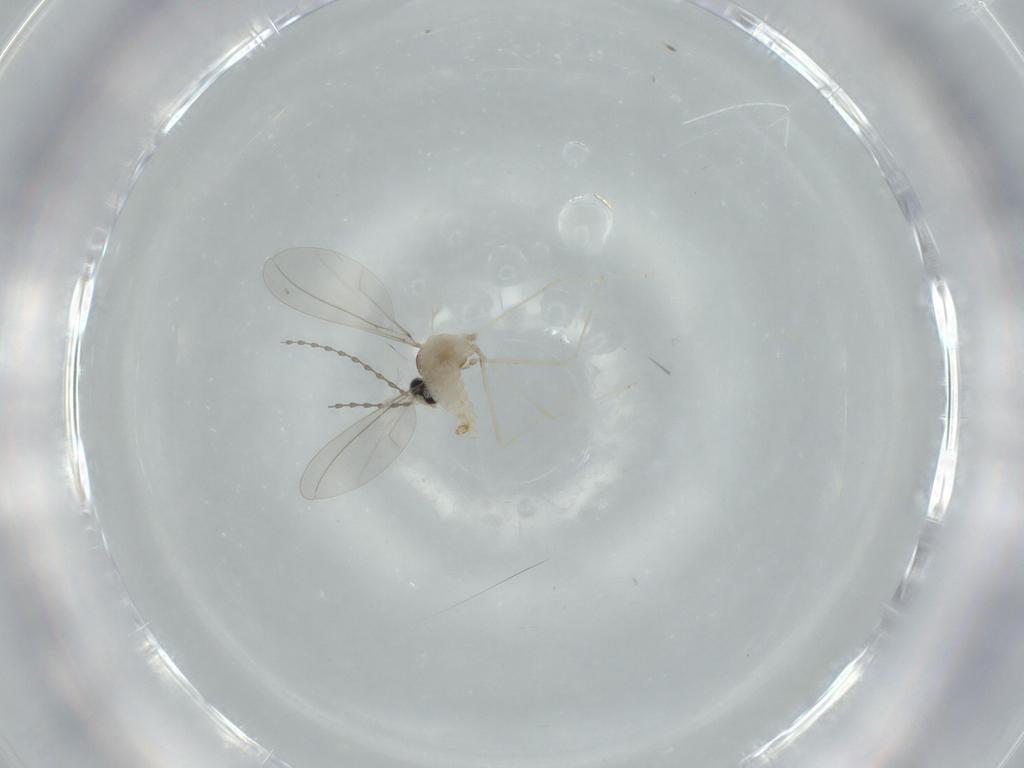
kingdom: Animalia
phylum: Arthropoda
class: Insecta
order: Diptera
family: Cecidomyiidae
